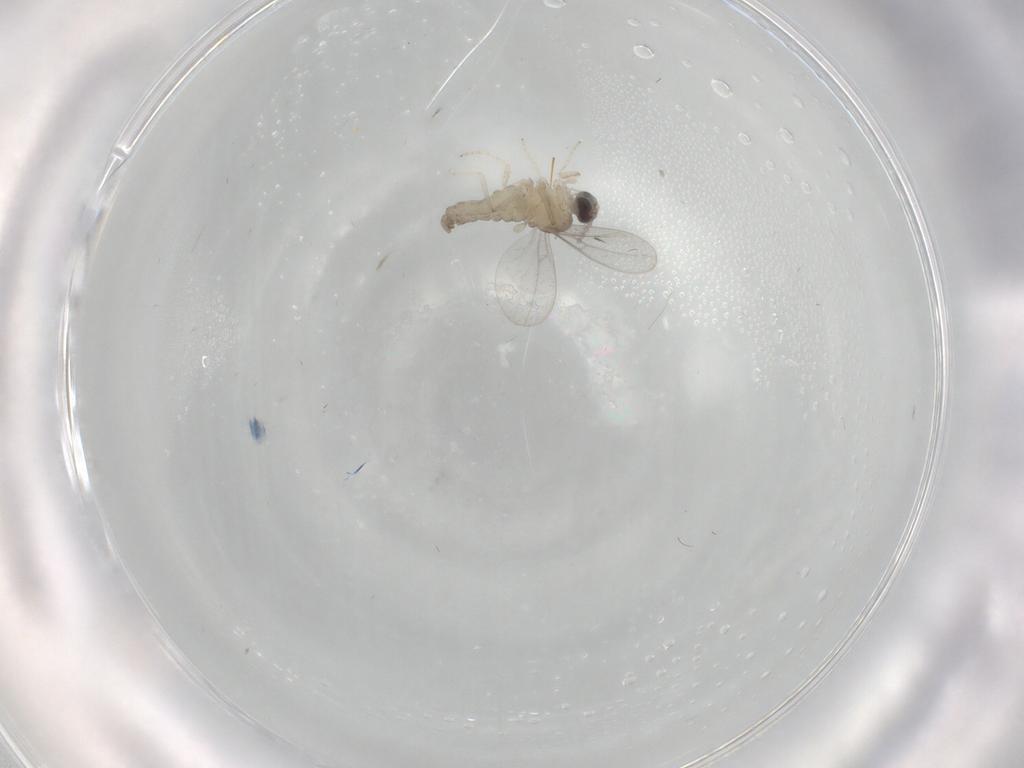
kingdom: Animalia
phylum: Arthropoda
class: Insecta
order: Diptera
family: Cecidomyiidae
